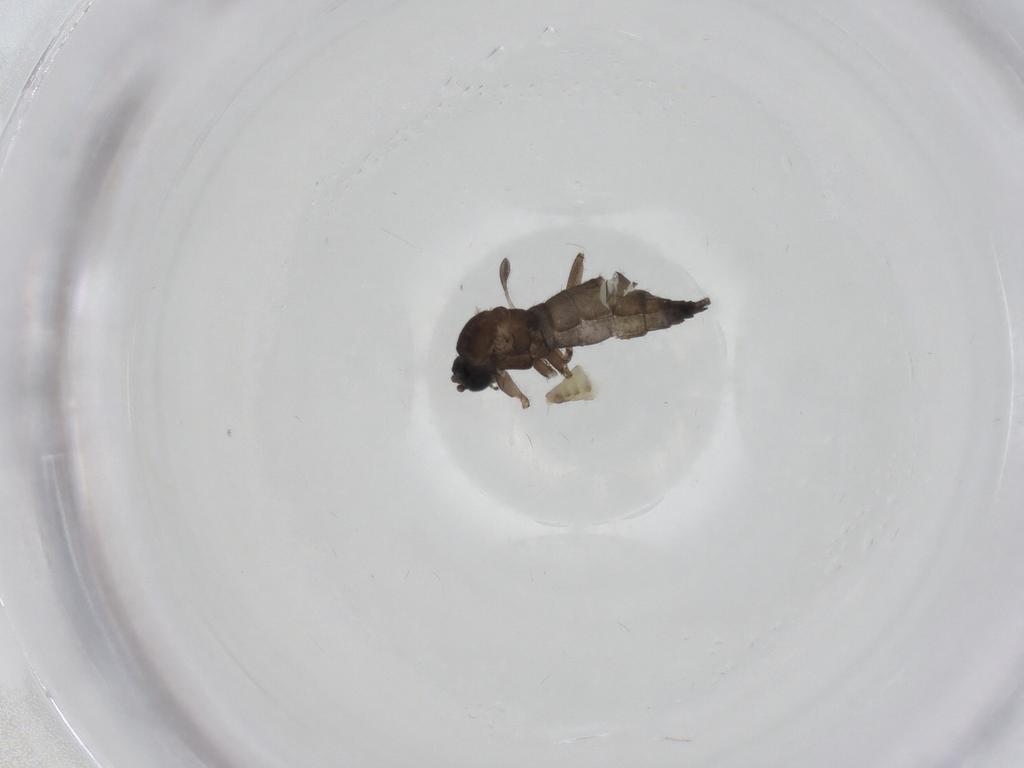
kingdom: Animalia
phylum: Arthropoda
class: Insecta
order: Diptera
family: Sciaridae
